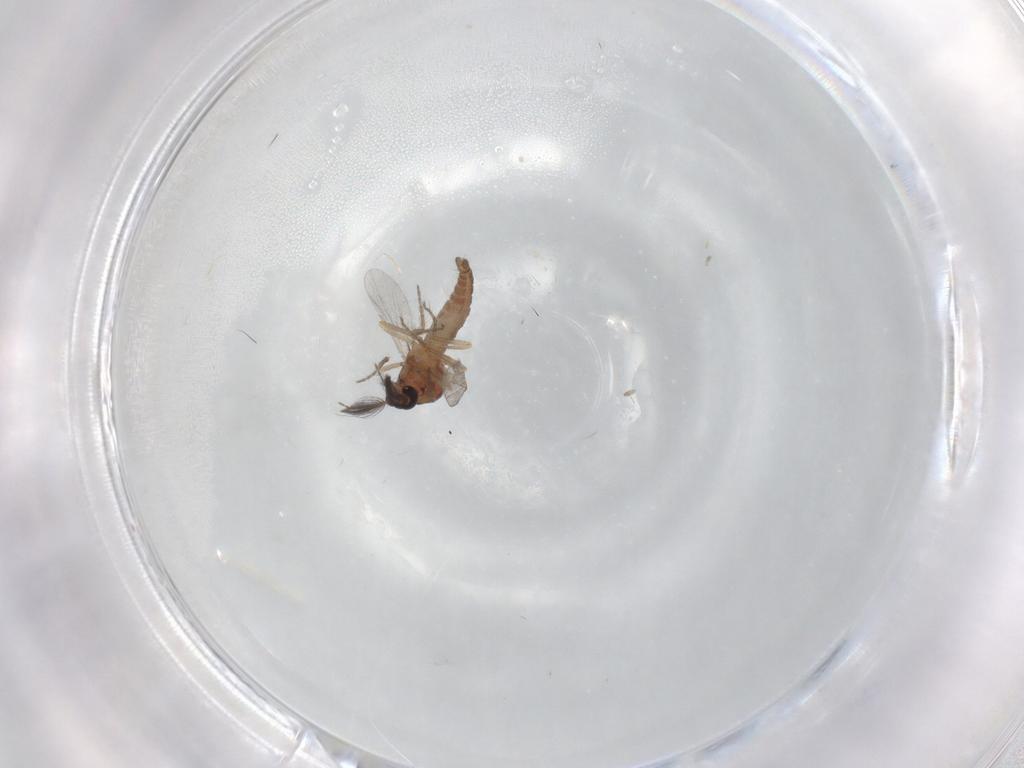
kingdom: Animalia
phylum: Arthropoda
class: Insecta
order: Diptera
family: Ceratopogonidae
